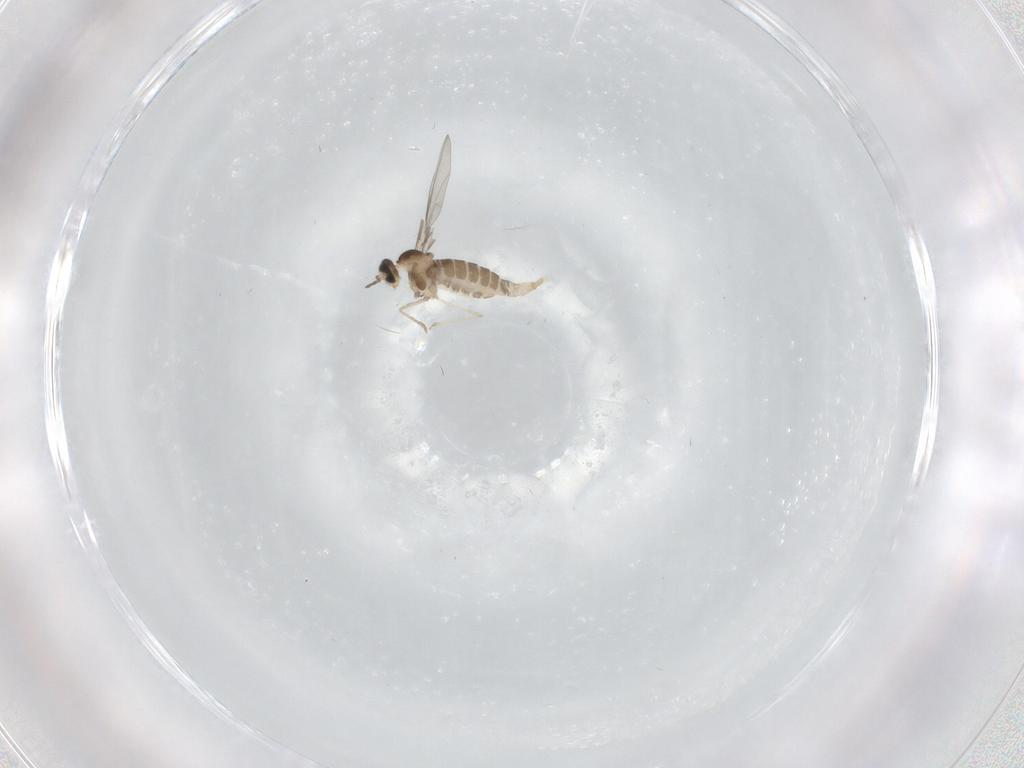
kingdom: Animalia
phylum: Arthropoda
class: Insecta
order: Diptera
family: Cecidomyiidae
